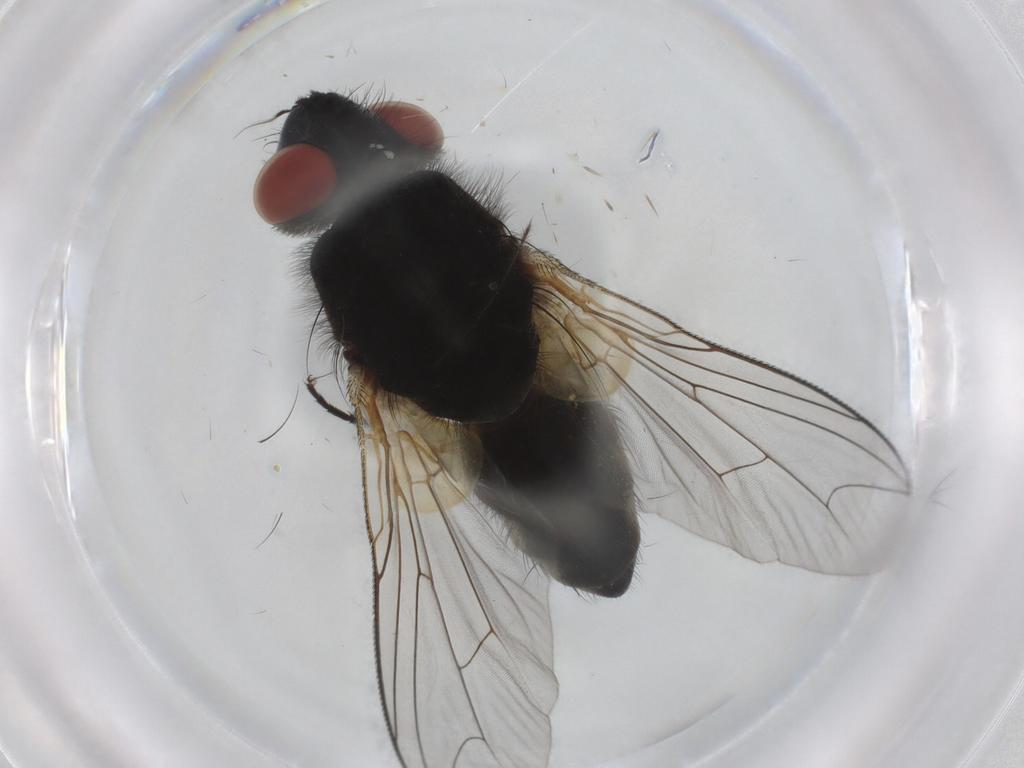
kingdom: Animalia
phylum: Arthropoda
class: Insecta
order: Diptera
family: Sarcophagidae
